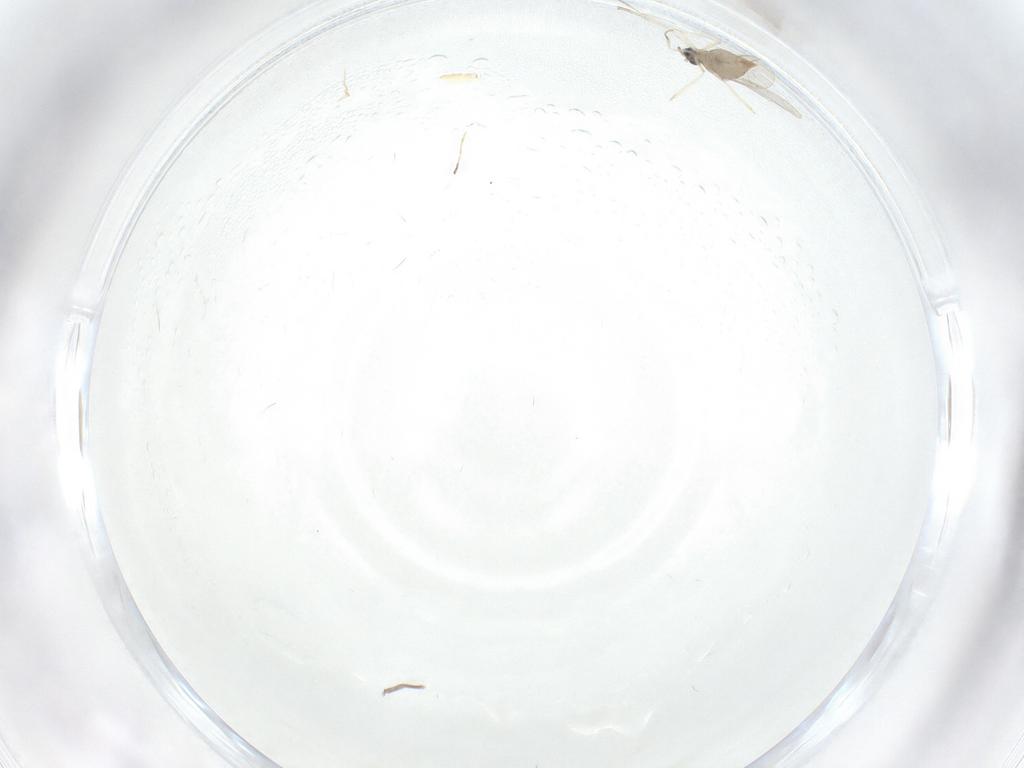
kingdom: Animalia
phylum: Arthropoda
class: Insecta
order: Diptera
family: Cecidomyiidae
